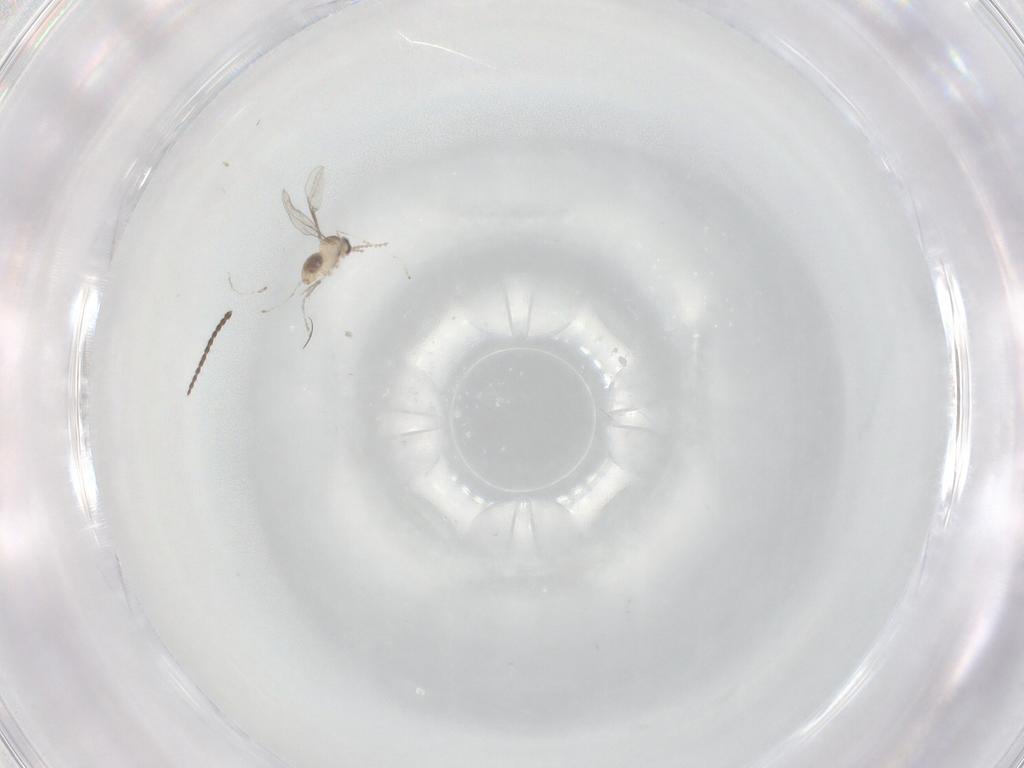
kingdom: Animalia
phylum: Arthropoda
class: Insecta
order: Diptera
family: Limoniidae
